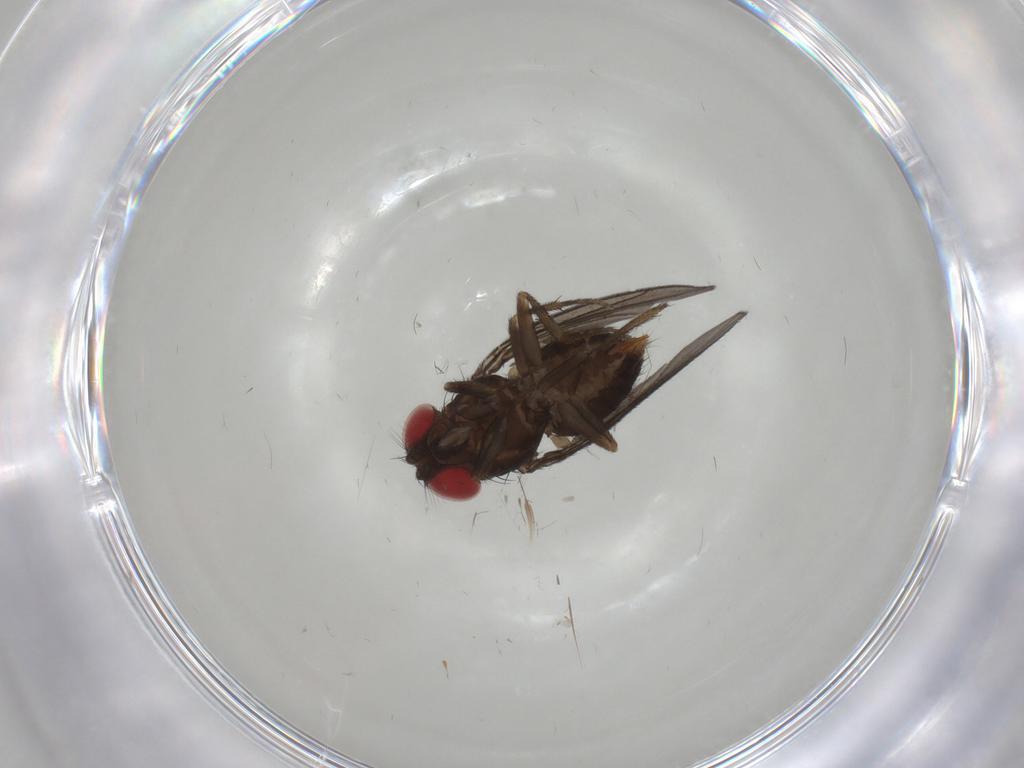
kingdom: Animalia
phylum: Arthropoda
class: Insecta
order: Diptera
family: Drosophilidae
